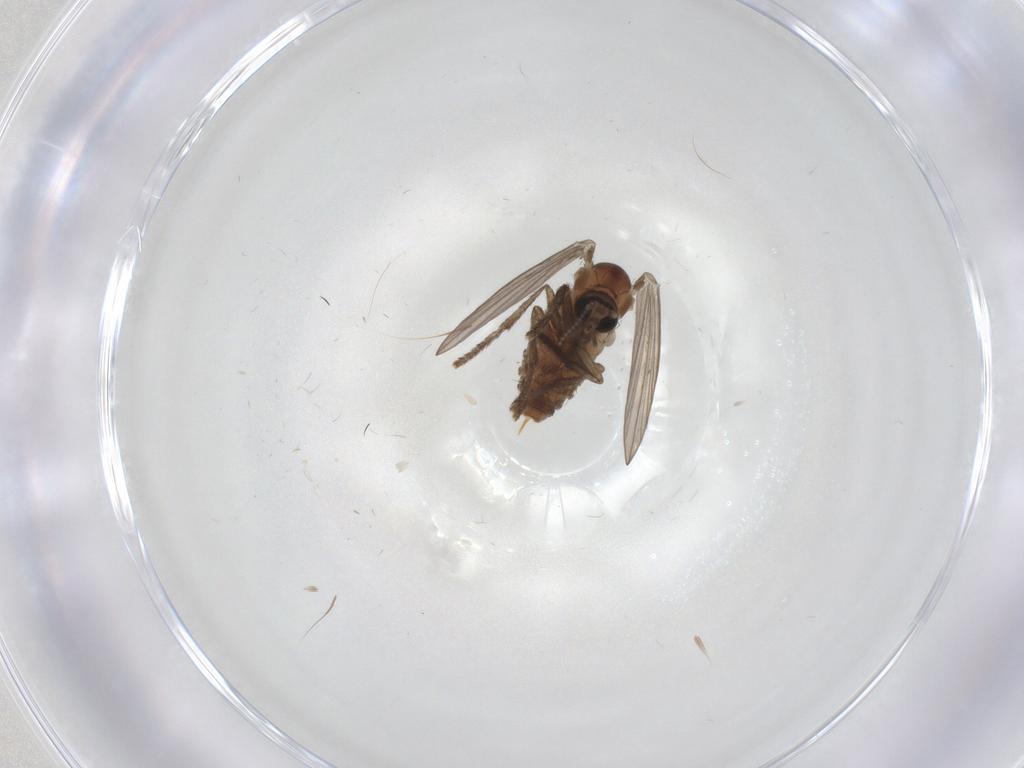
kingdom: Animalia
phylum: Arthropoda
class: Insecta
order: Diptera
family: Psychodidae
